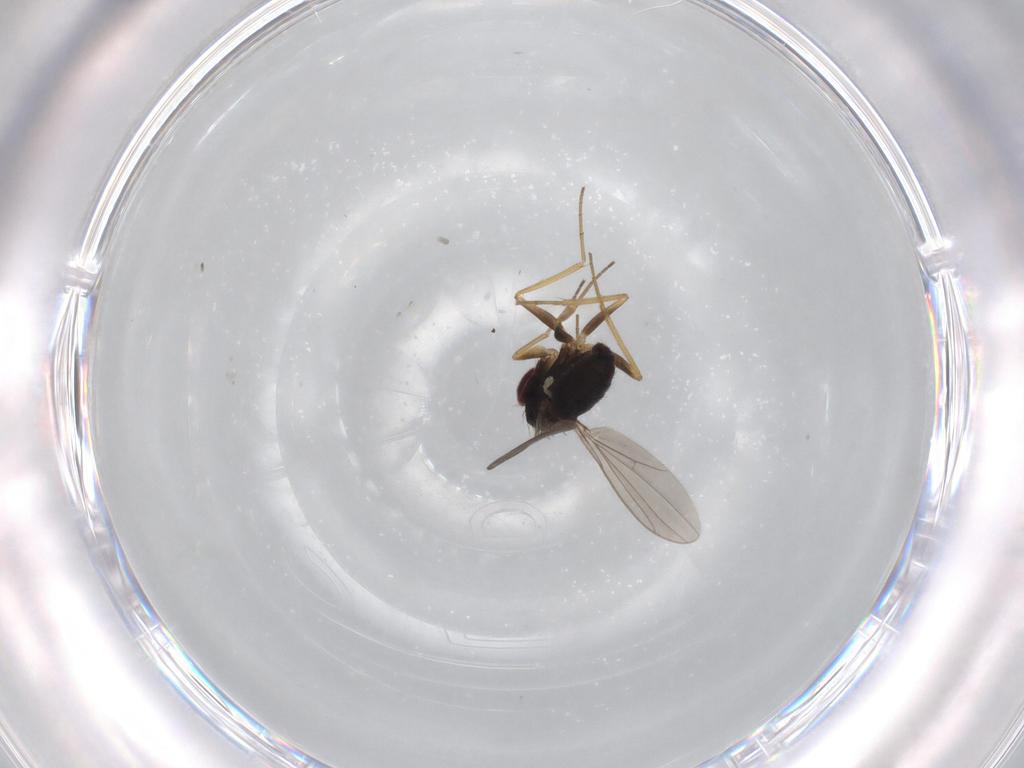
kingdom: Animalia
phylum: Arthropoda
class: Insecta
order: Diptera
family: Dolichopodidae
